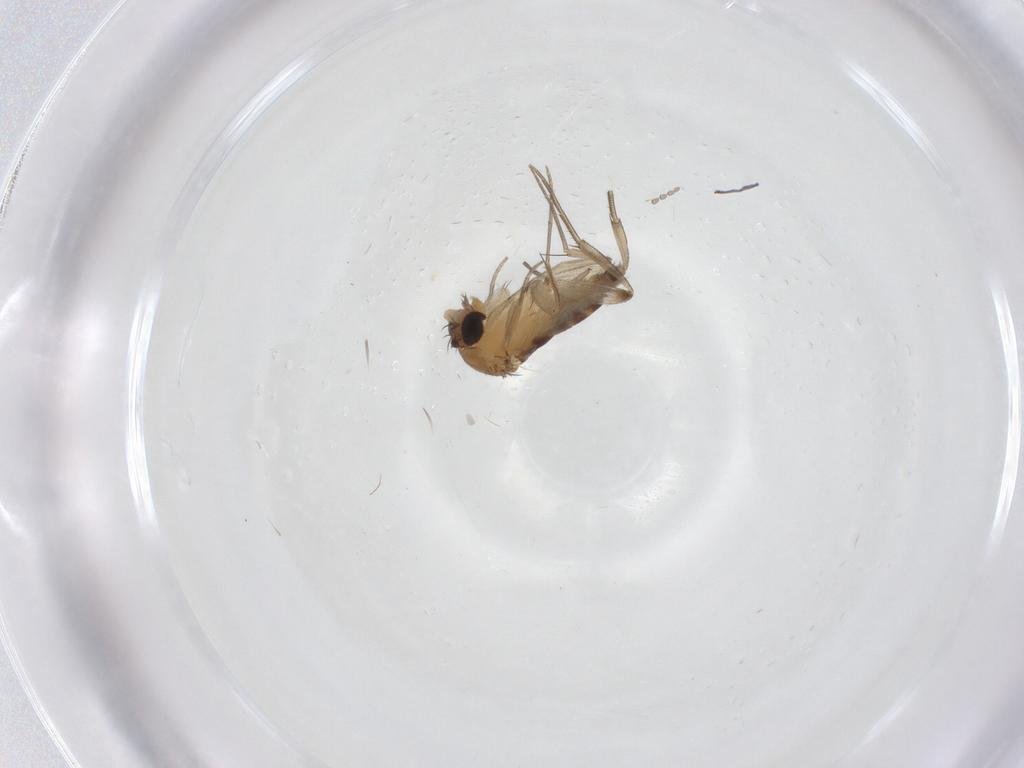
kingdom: Animalia
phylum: Arthropoda
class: Insecta
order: Diptera
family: Sciaridae
